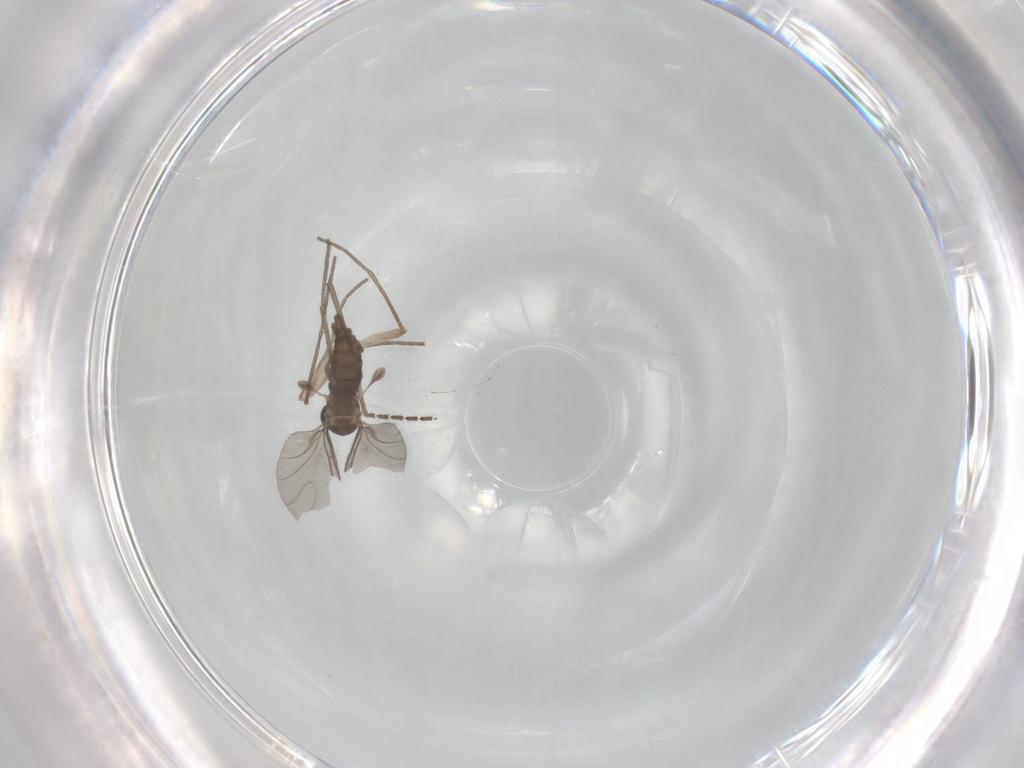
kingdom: Animalia
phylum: Arthropoda
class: Insecta
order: Diptera
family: Sciaridae
